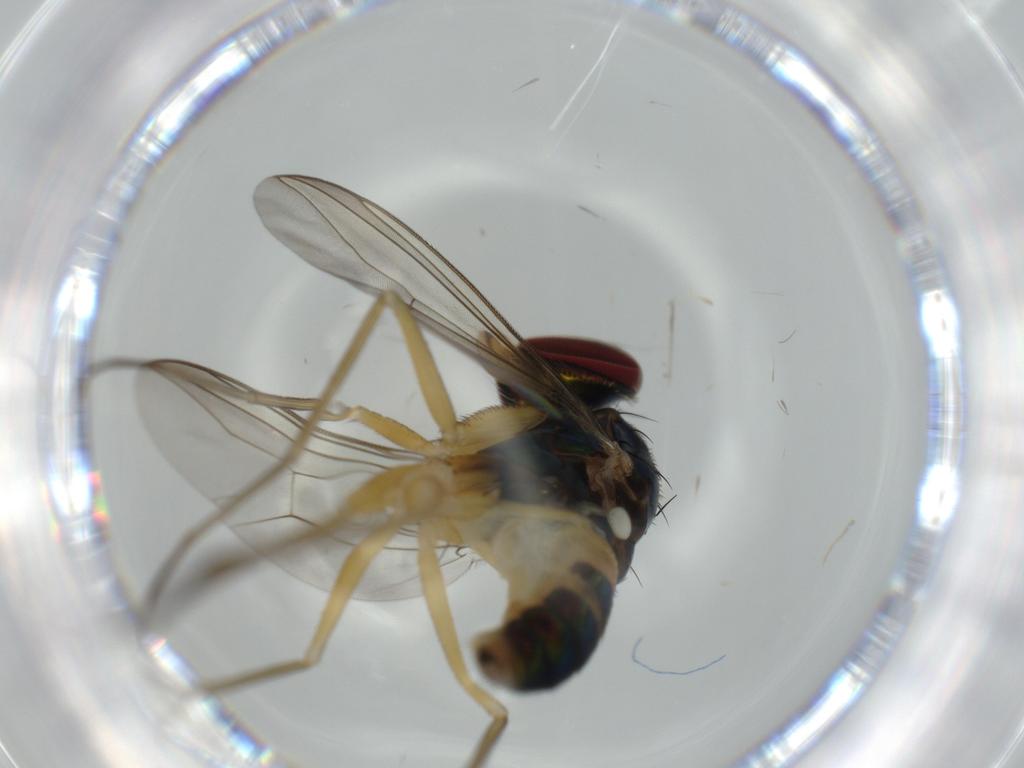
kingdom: Animalia
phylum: Arthropoda
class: Insecta
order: Diptera
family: Dolichopodidae
